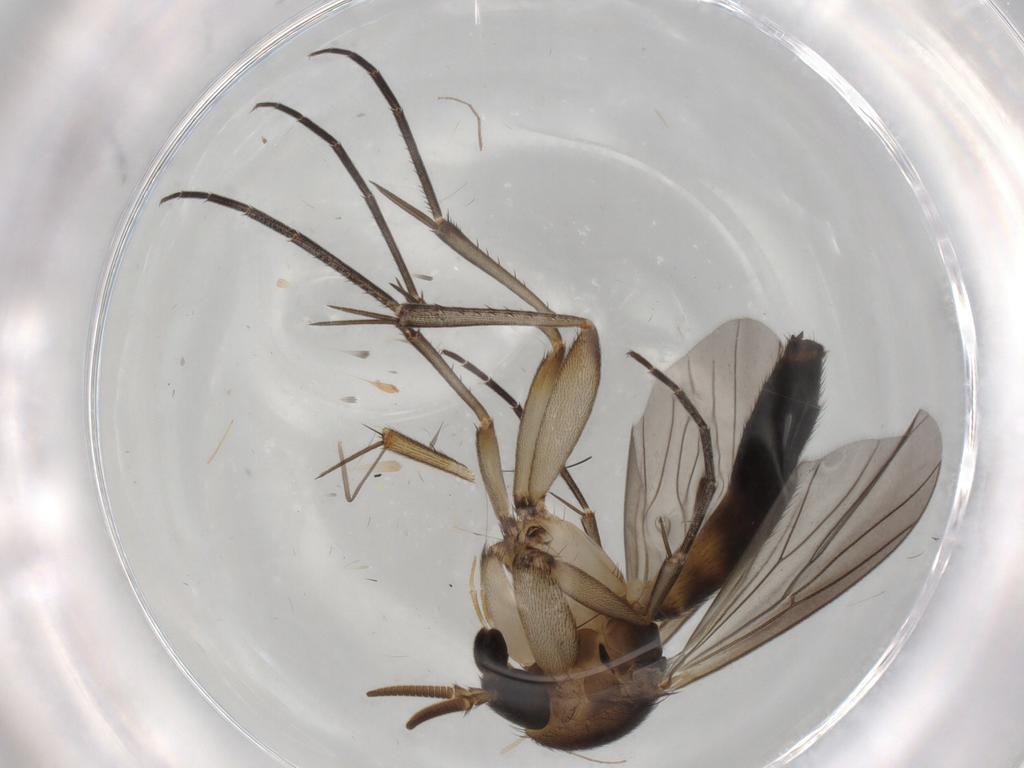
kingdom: Animalia
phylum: Arthropoda
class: Insecta
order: Diptera
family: Mycetophilidae
